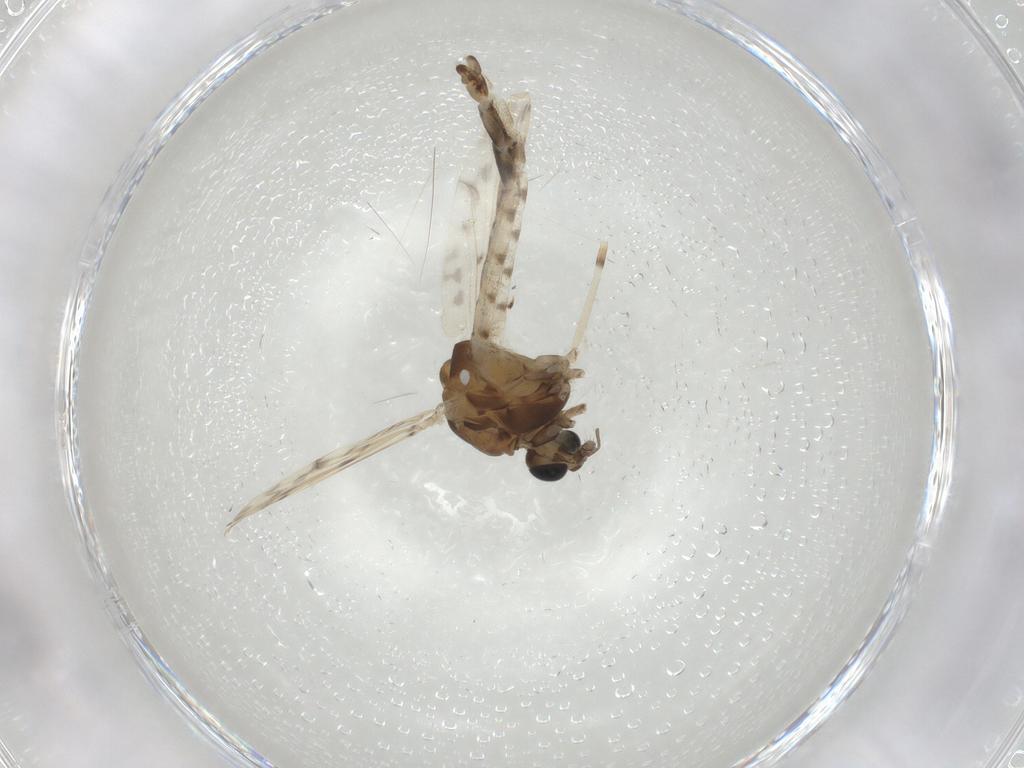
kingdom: Animalia
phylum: Arthropoda
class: Insecta
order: Diptera
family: Chironomidae
